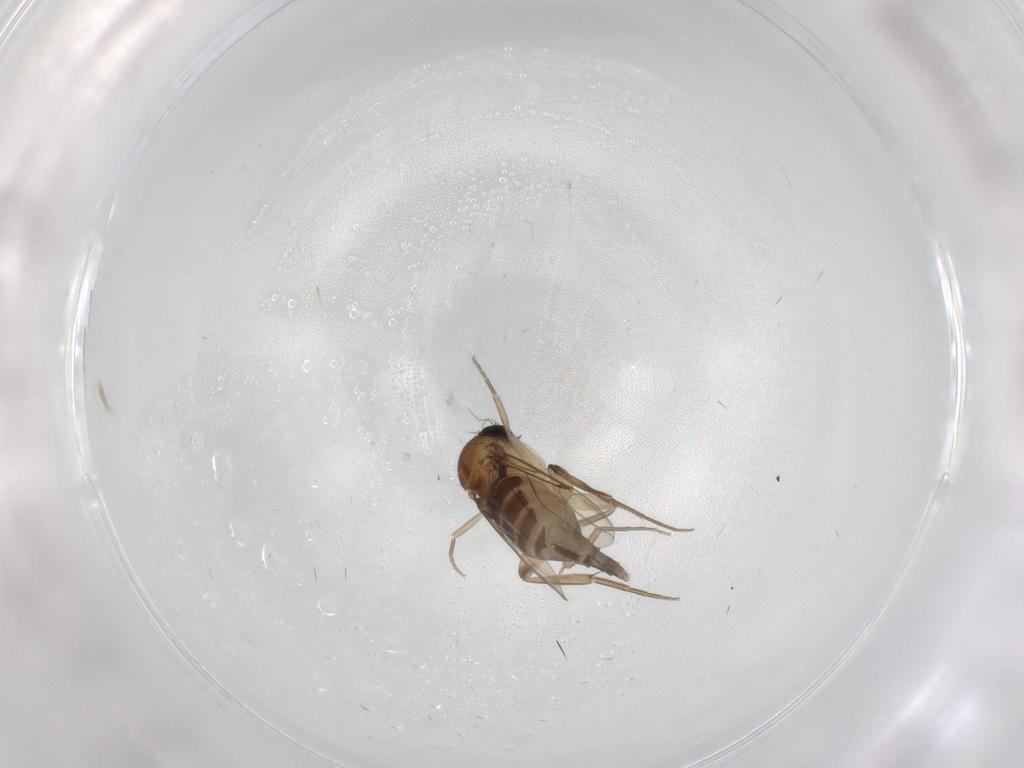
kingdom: Animalia
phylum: Arthropoda
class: Insecta
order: Diptera
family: Phoridae
